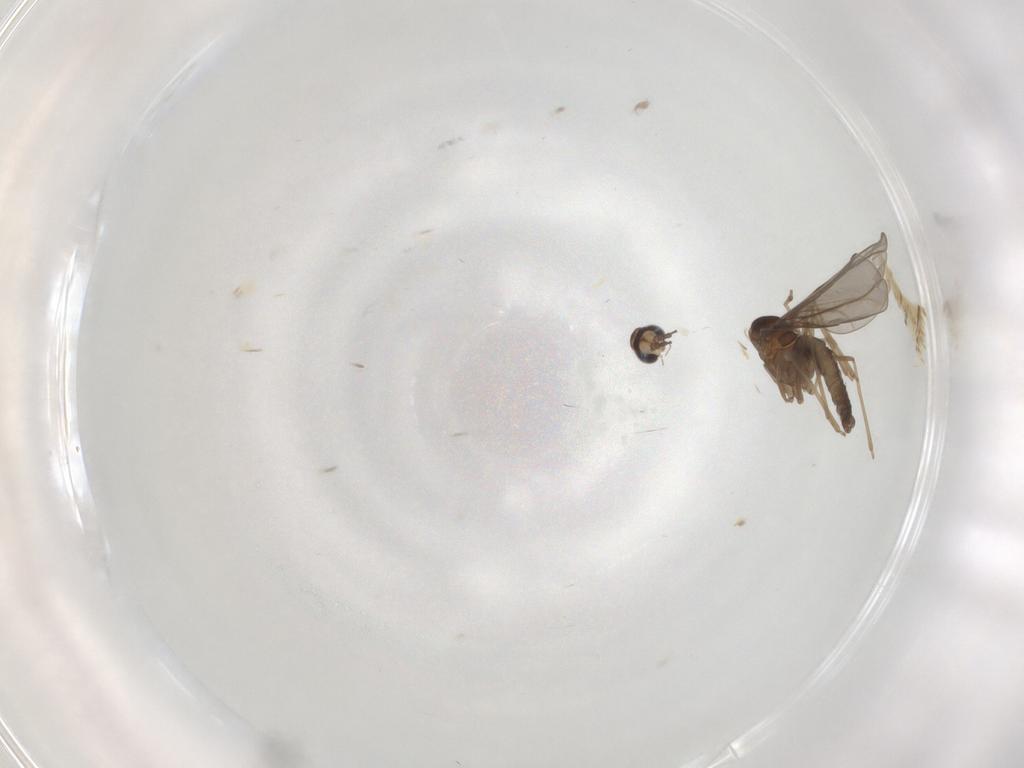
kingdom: Animalia
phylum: Arthropoda
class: Insecta
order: Diptera
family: Cecidomyiidae
